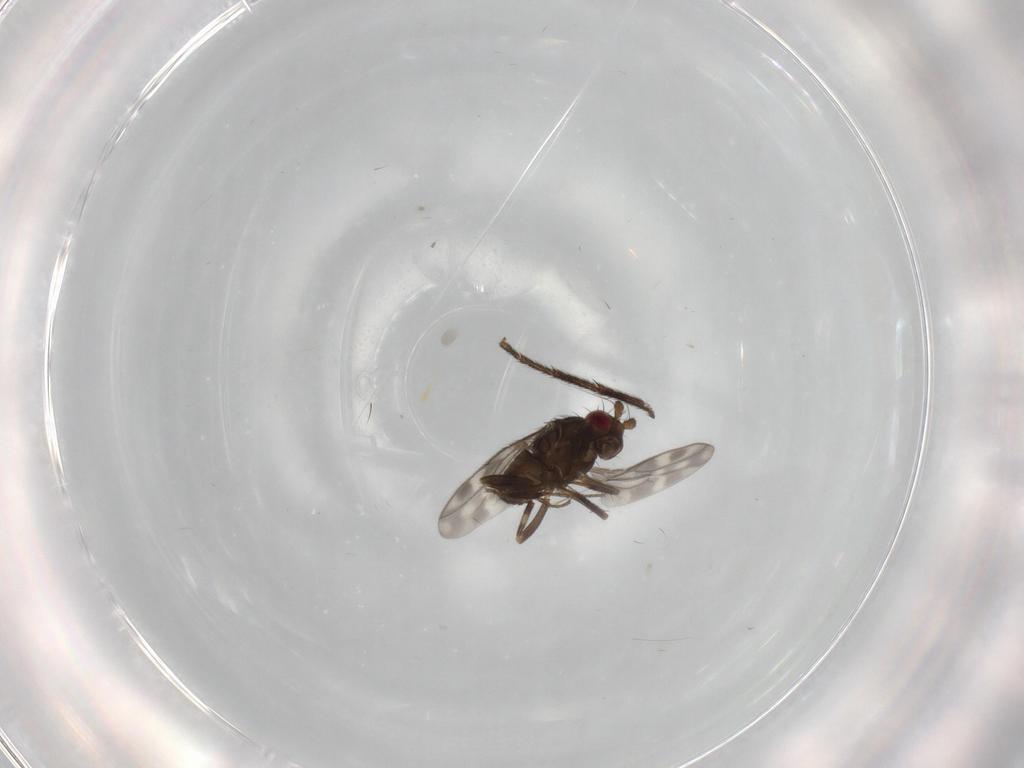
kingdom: Animalia
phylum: Arthropoda
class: Insecta
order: Diptera
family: Sphaeroceridae
